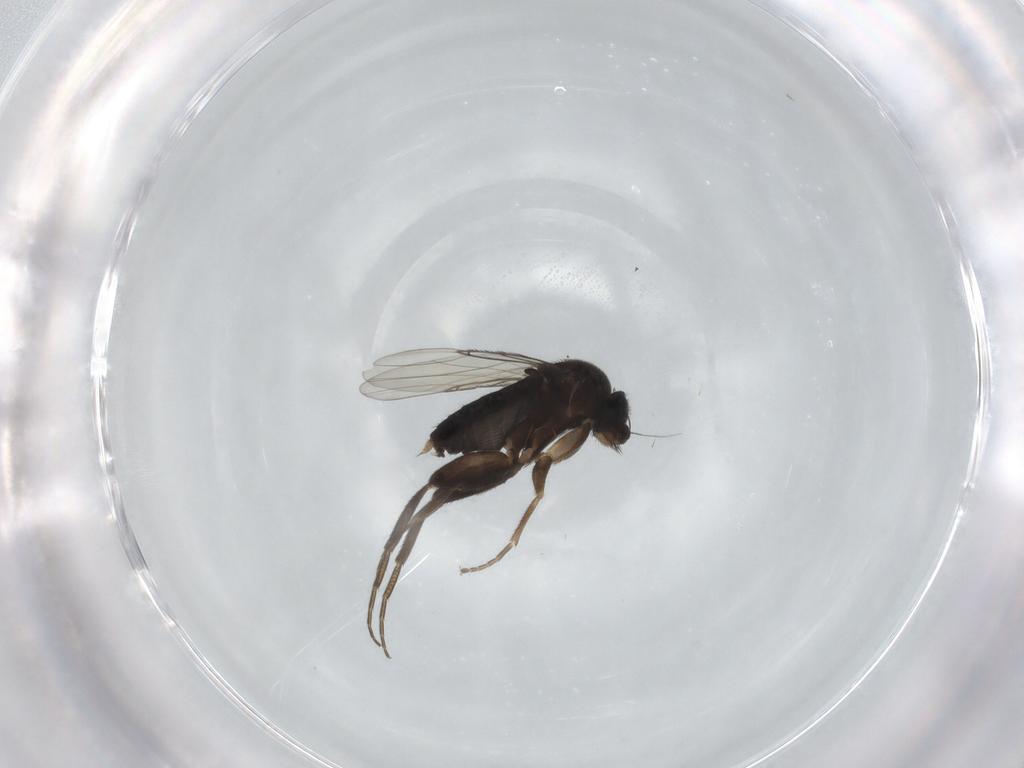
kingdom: Animalia
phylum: Arthropoda
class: Insecta
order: Diptera
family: Phoridae
